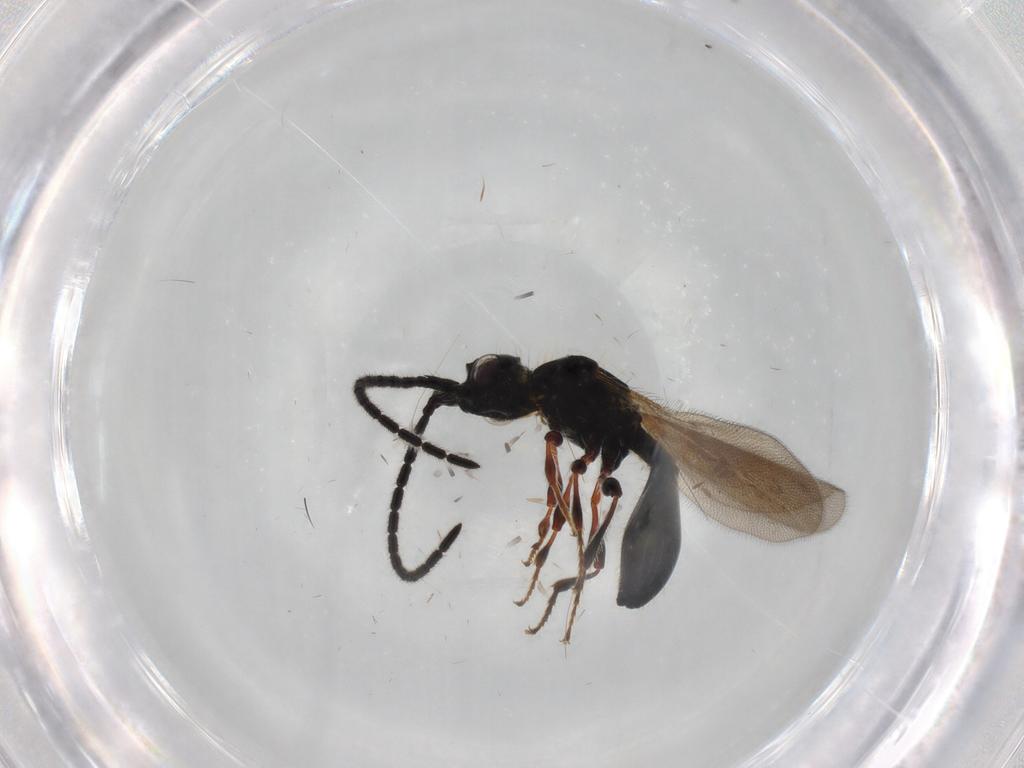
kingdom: Animalia
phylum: Arthropoda
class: Insecta
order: Hymenoptera
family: Diapriidae
